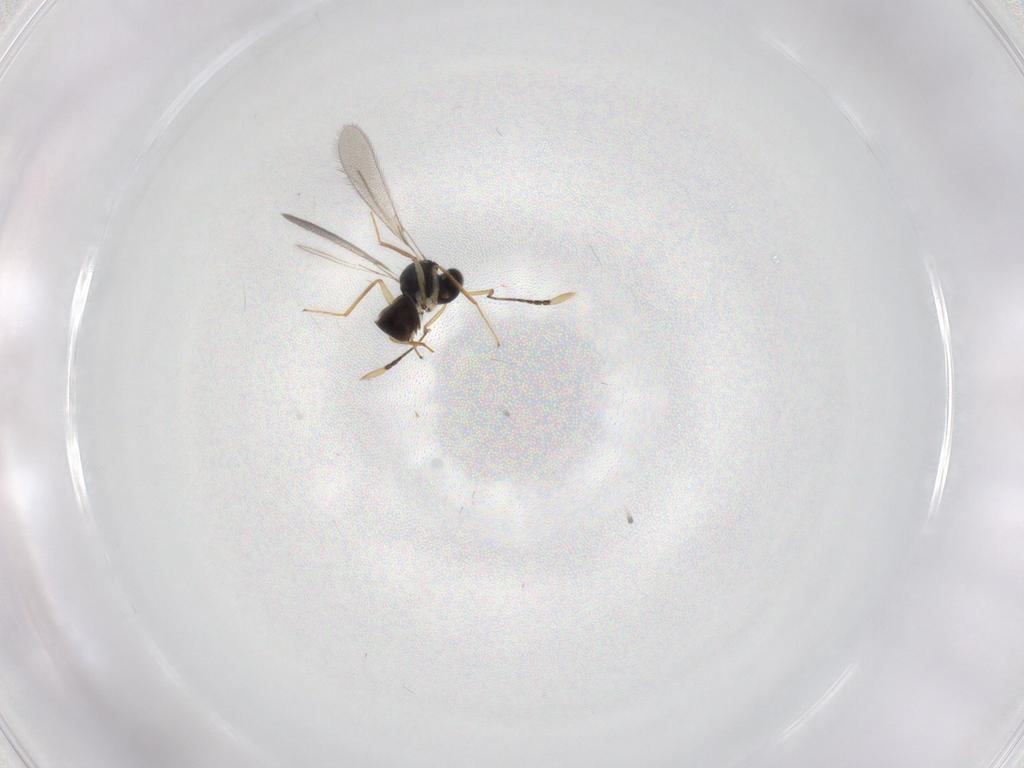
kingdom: Animalia
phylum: Arthropoda
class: Insecta
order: Hymenoptera
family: Mymaridae
